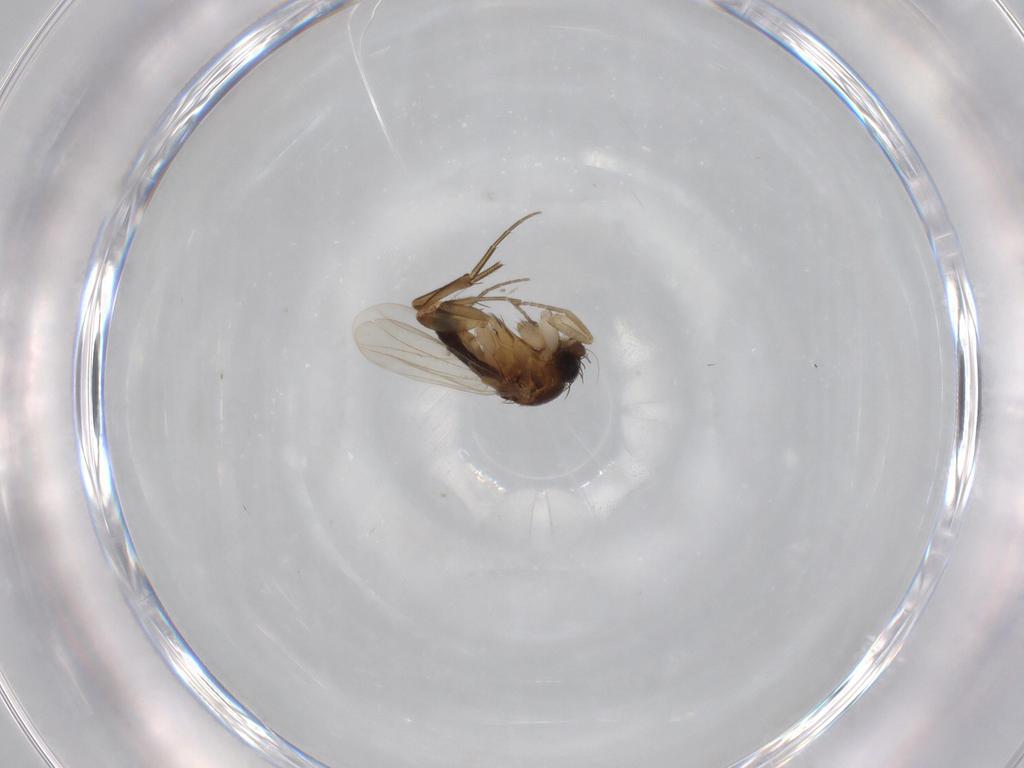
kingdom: Animalia
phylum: Arthropoda
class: Insecta
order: Diptera
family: Phoridae
